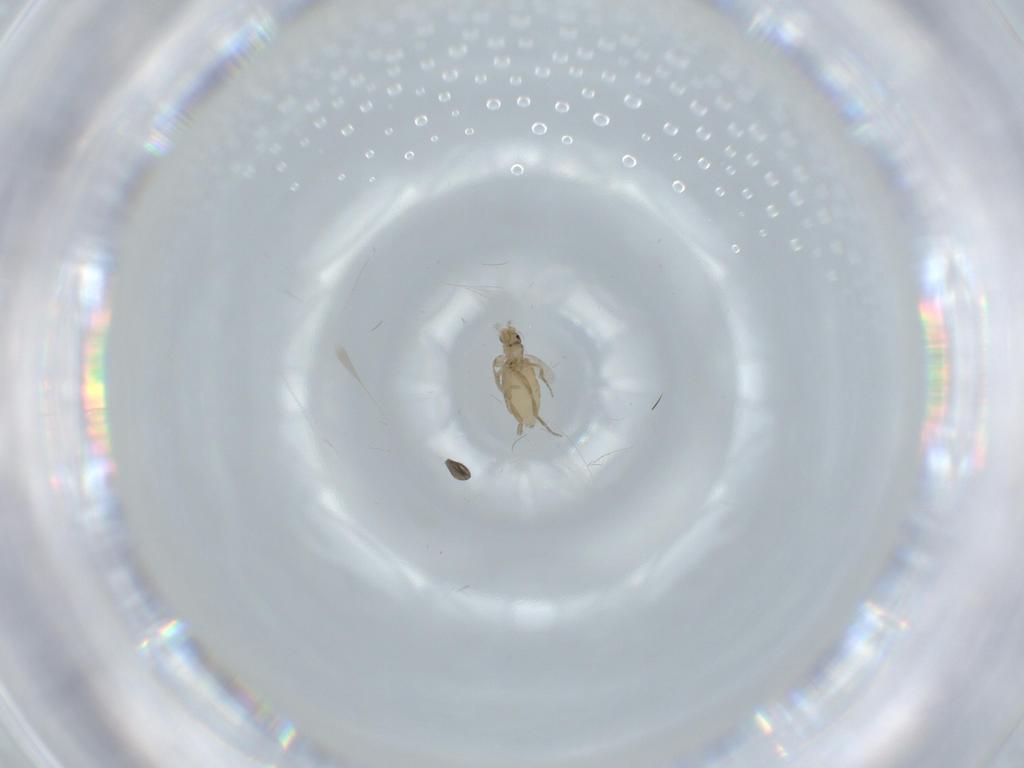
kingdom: Animalia
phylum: Arthropoda
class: Insecta
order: Diptera
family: Phoridae
